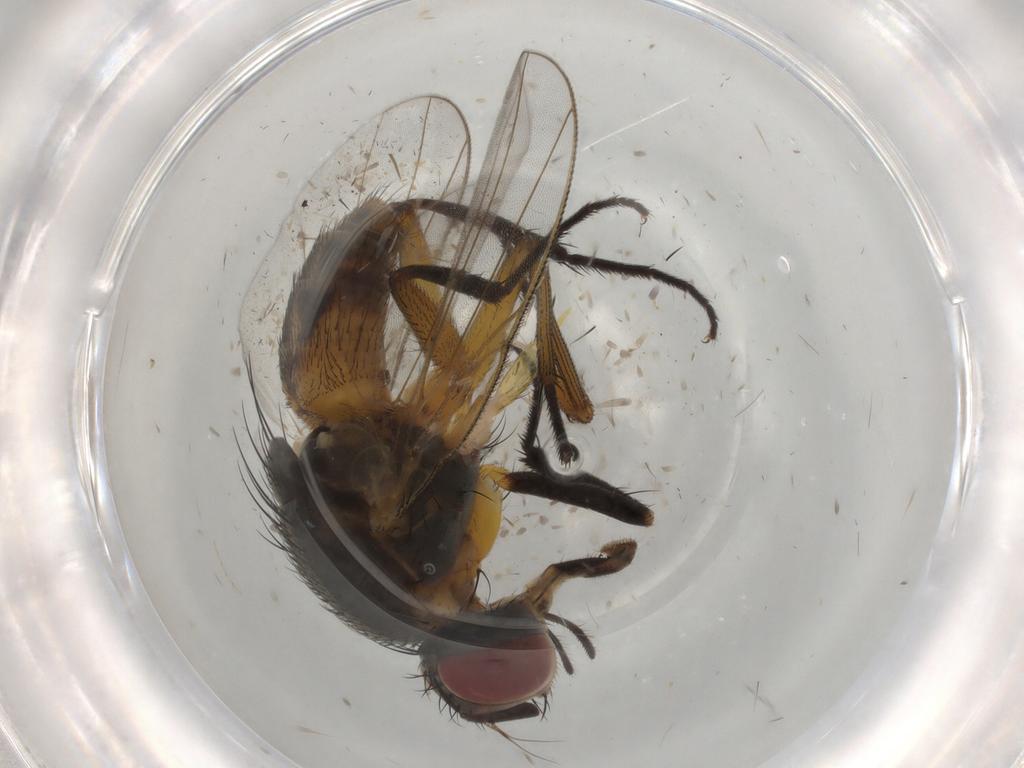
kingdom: Animalia
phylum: Arthropoda
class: Insecta
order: Diptera
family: Muscidae
